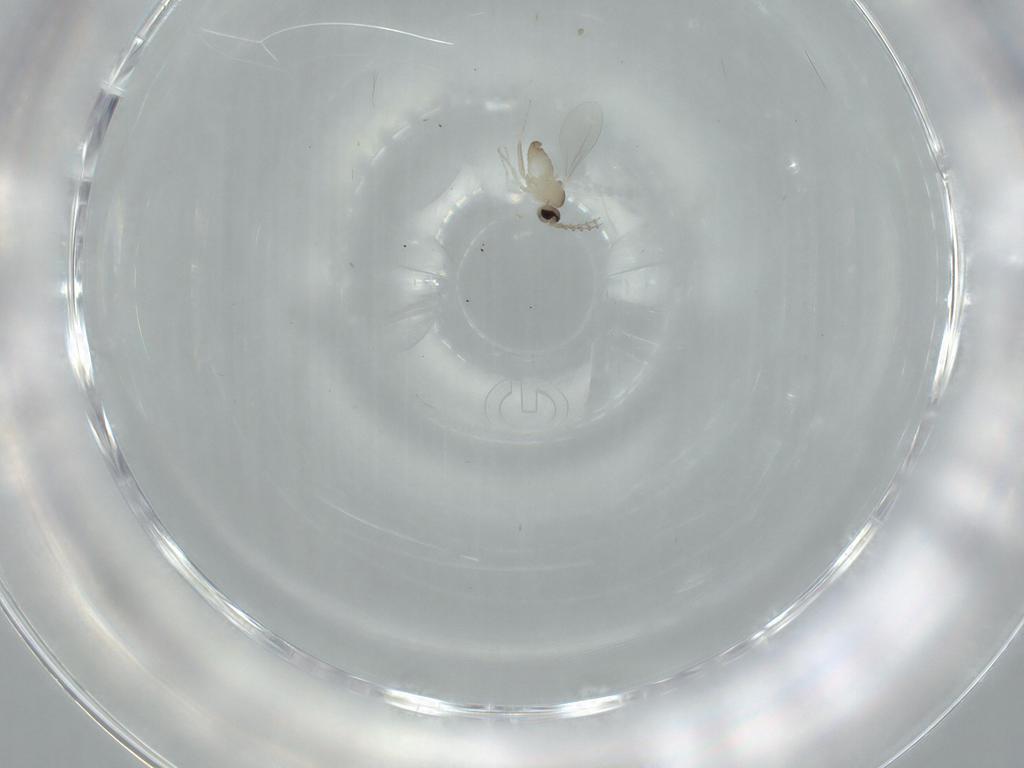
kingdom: Animalia
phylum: Arthropoda
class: Insecta
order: Diptera
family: Cecidomyiidae
